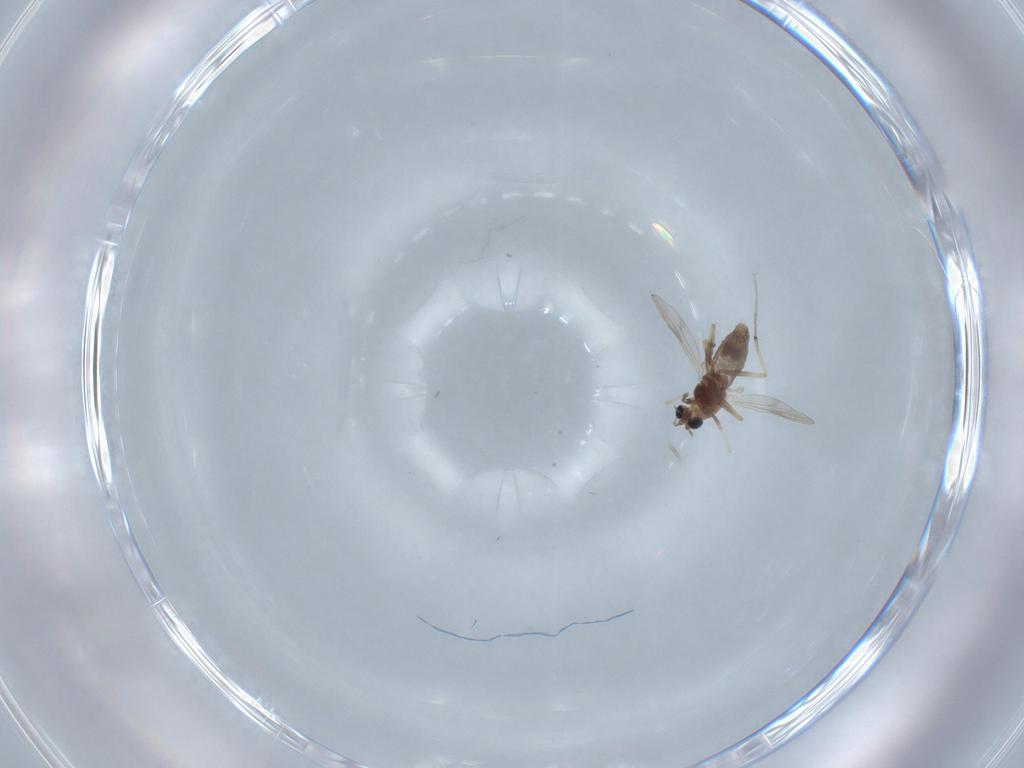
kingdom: Animalia
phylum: Arthropoda
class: Insecta
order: Diptera
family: Chironomidae
